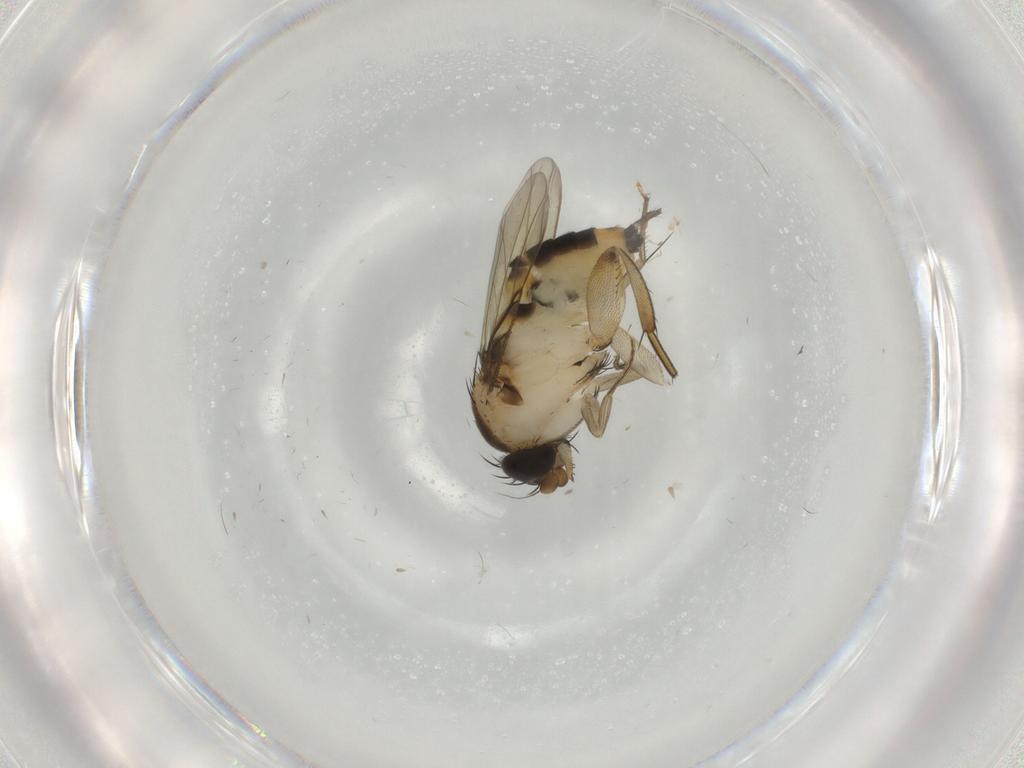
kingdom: Animalia
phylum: Arthropoda
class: Insecta
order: Diptera
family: Phoridae
